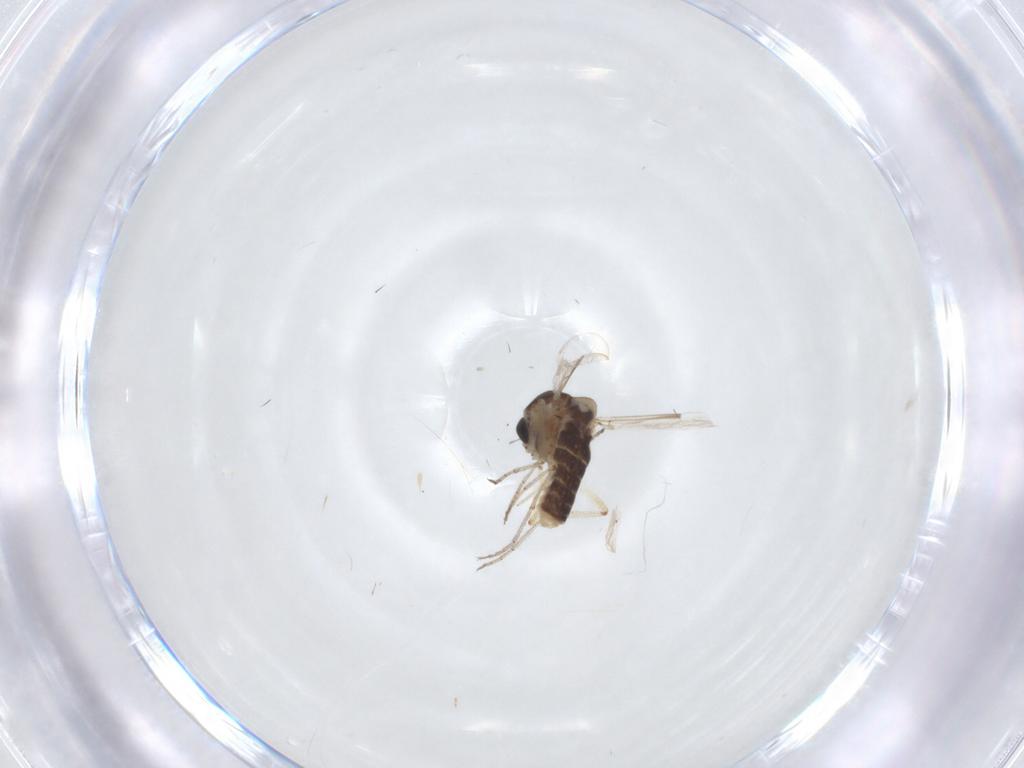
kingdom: Animalia
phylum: Arthropoda
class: Insecta
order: Diptera
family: Ceratopogonidae
